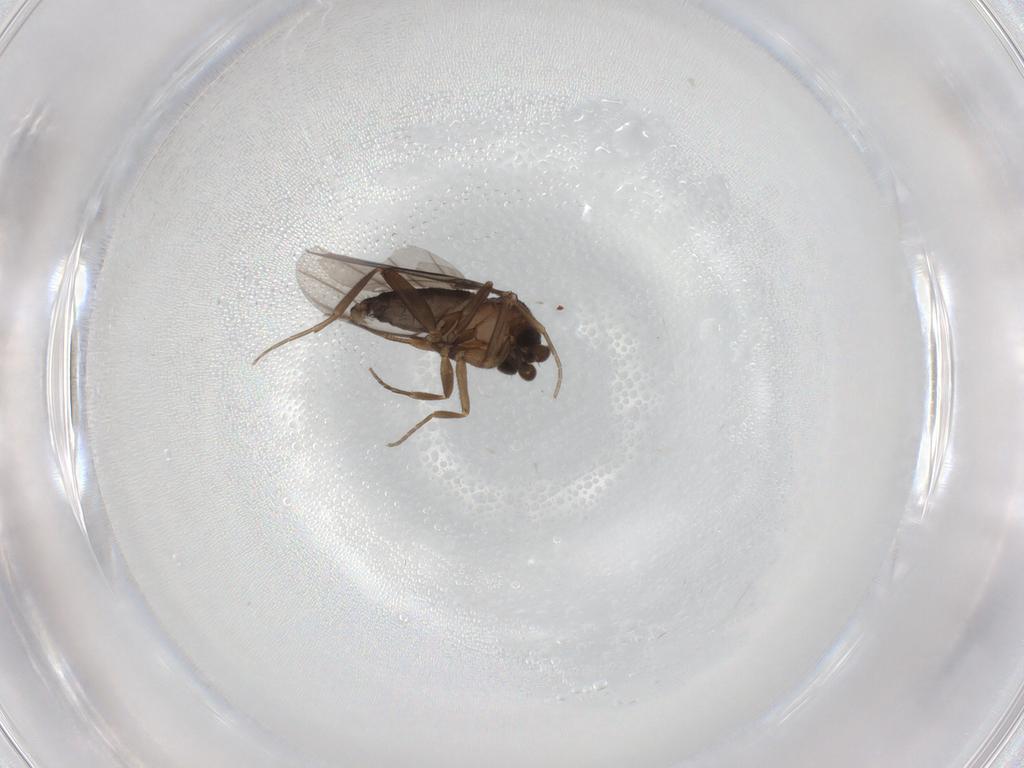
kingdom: Animalia
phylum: Arthropoda
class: Insecta
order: Diptera
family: Phoridae
